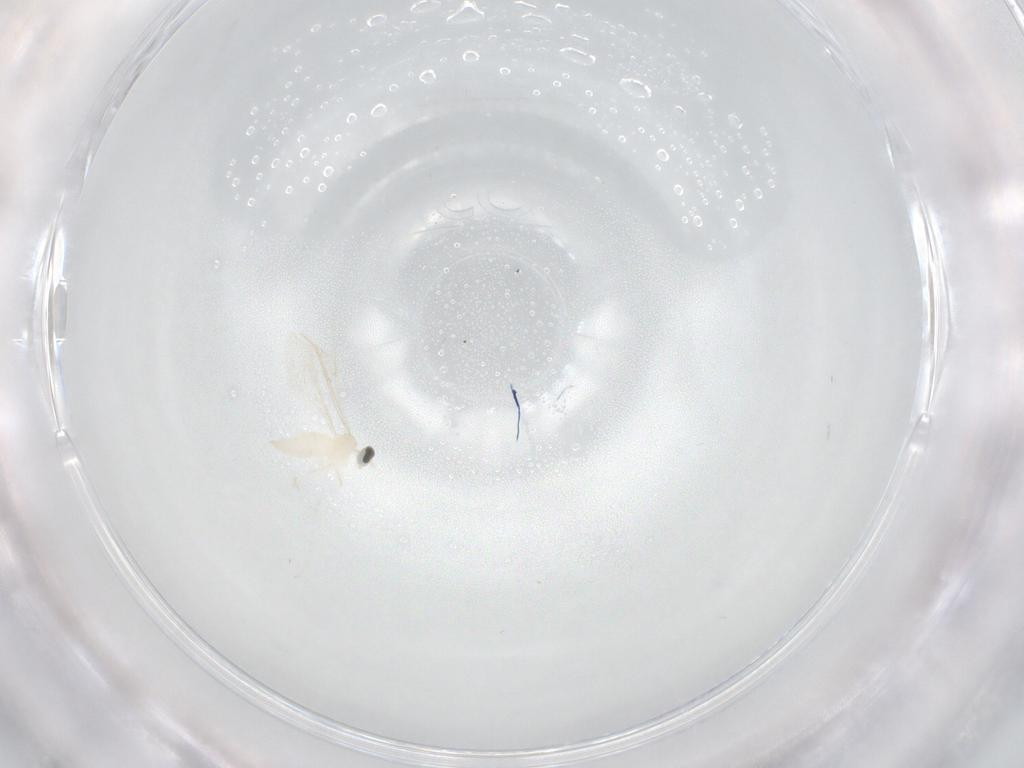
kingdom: Animalia
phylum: Arthropoda
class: Insecta
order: Diptera
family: Cecidomyiidae
